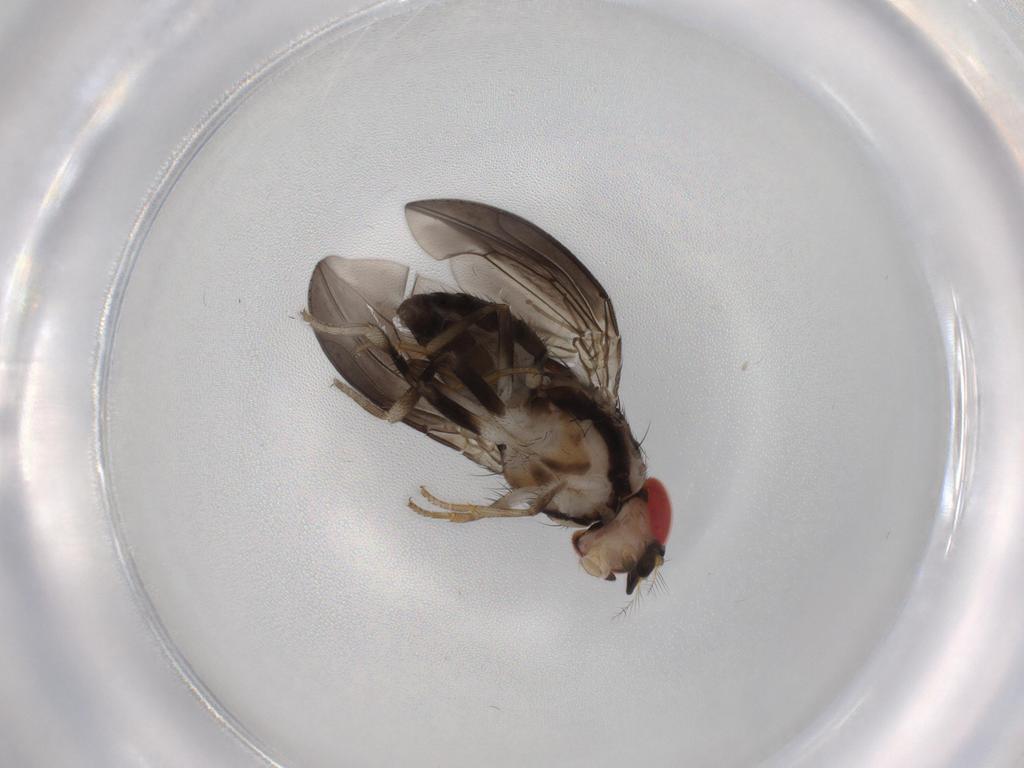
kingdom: Animalia
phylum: Arthropoda
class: Insecta
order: Diptera
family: Drosophilidae
